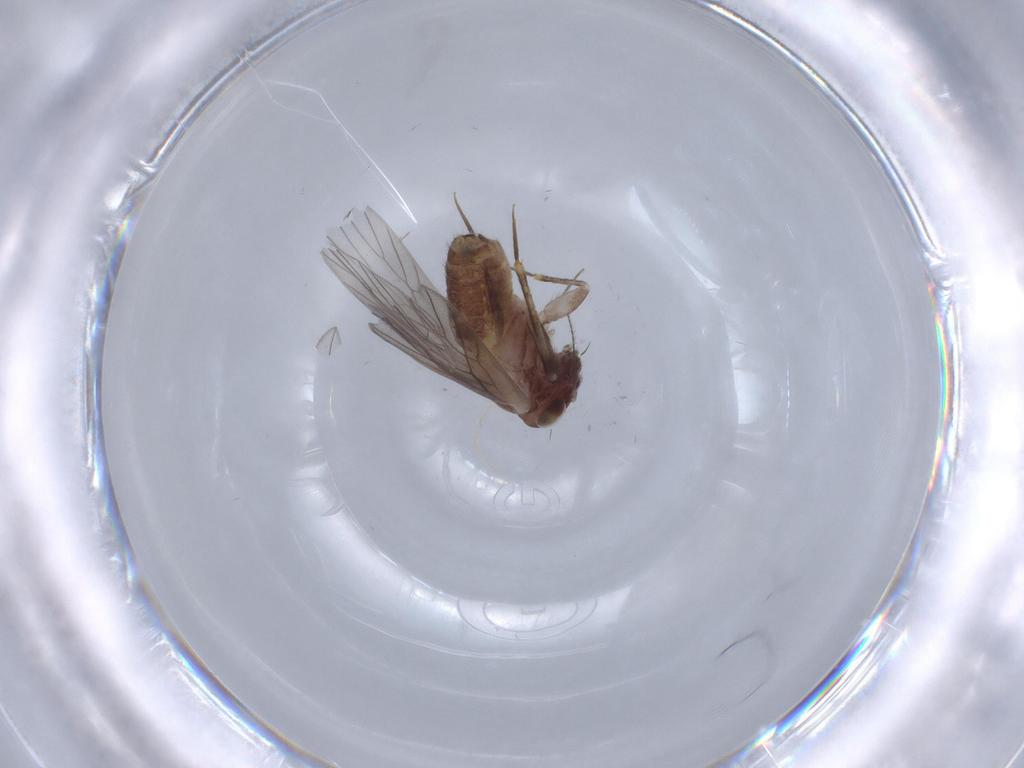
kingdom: Animalia
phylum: Arthropoda
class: Insecta
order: Psocodea
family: Lepidopsocidae
